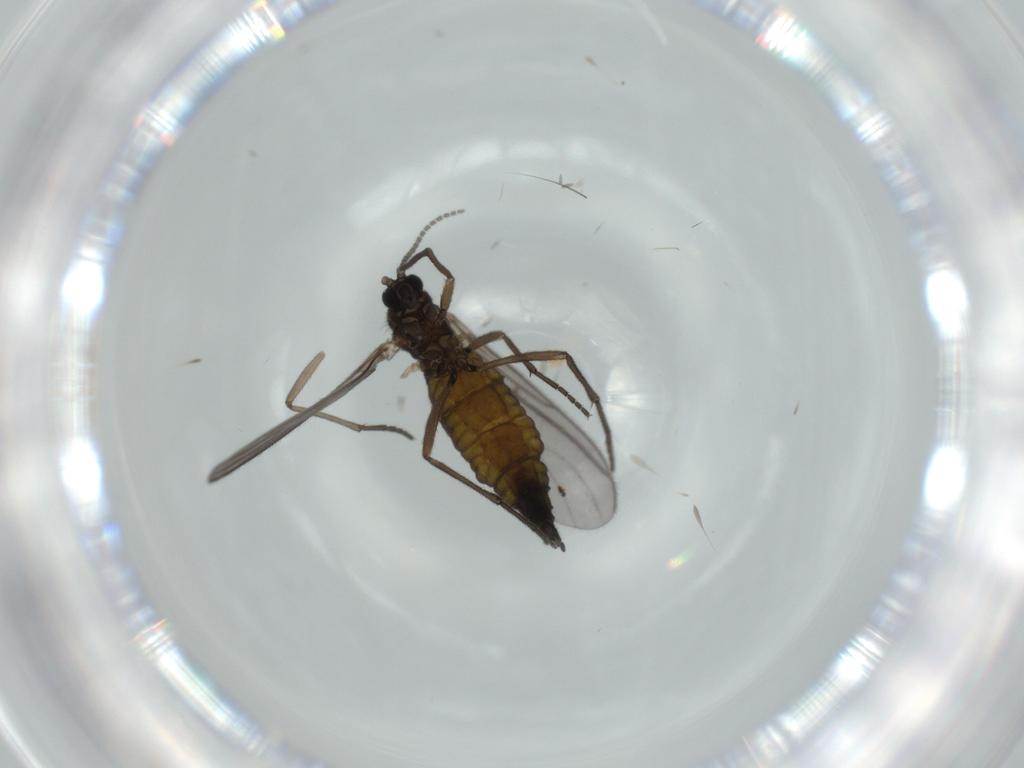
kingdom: Animalia
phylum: Arthropoda
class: Insecta
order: Diptera
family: Sciaridae
